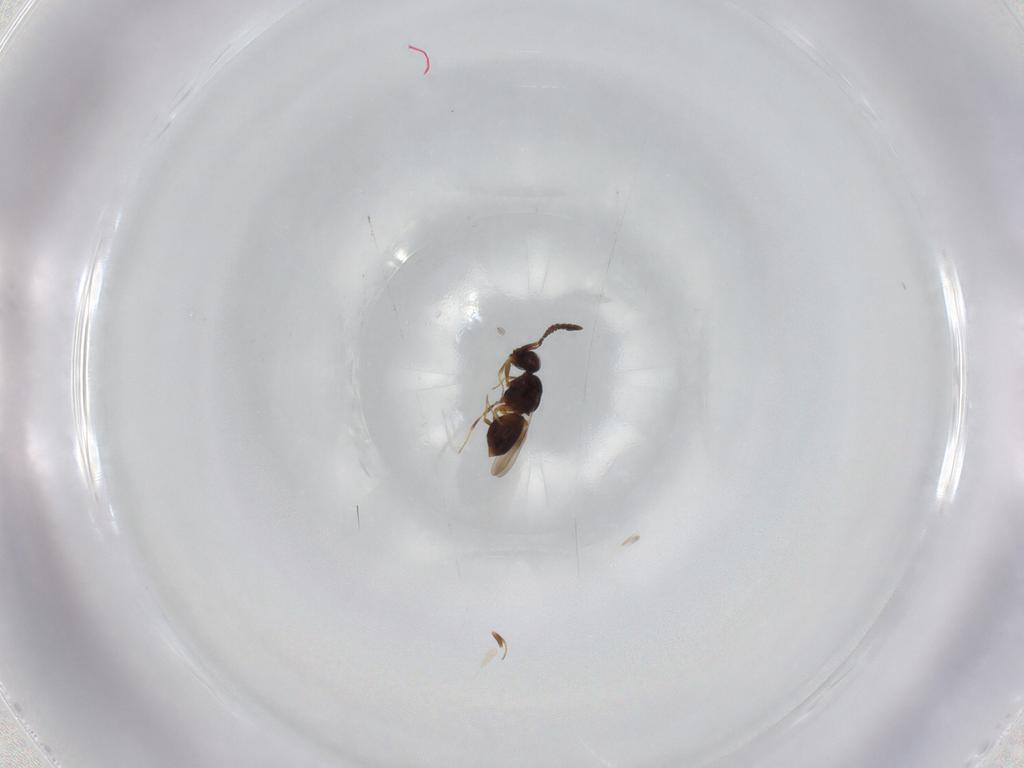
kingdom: Animalia
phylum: Arthropoda
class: Insecta
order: Hymenoptera
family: Ceraphronidae
